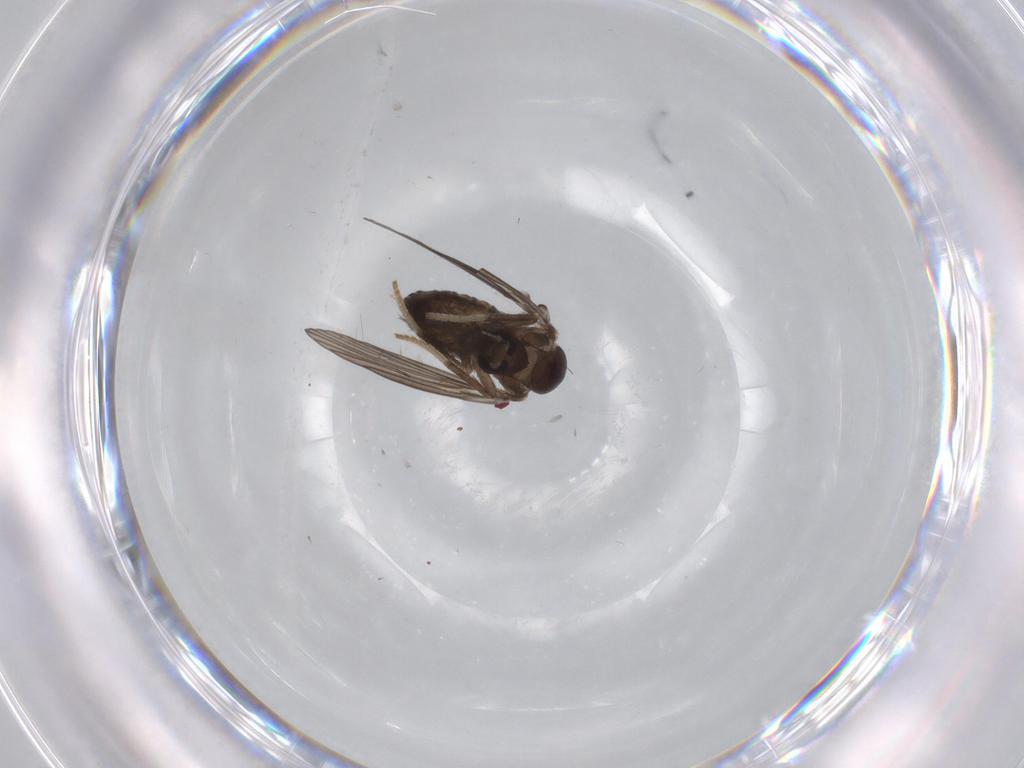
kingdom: Animalia
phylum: Arthropoda
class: Insecta
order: Diptera
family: Psychodidae
